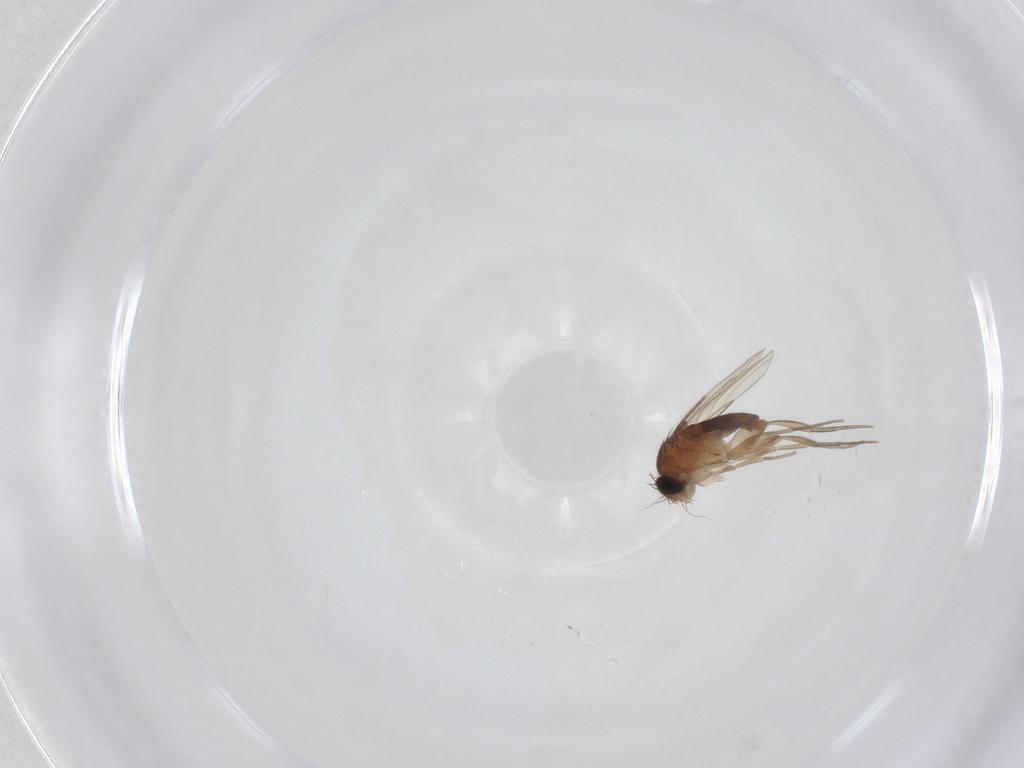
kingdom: Animalia
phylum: Arthropoda
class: Insecta
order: Diptera
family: Phoridae
